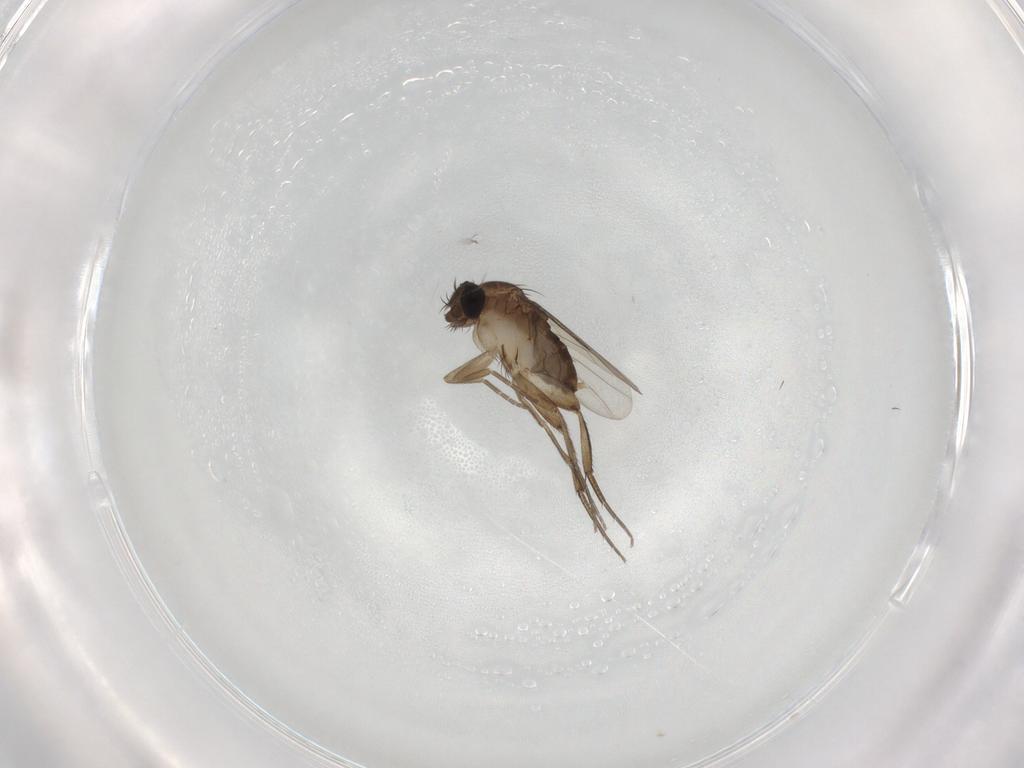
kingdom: Animalia
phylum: Arthropoda
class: Insecta
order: Diptera
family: Phoridae
